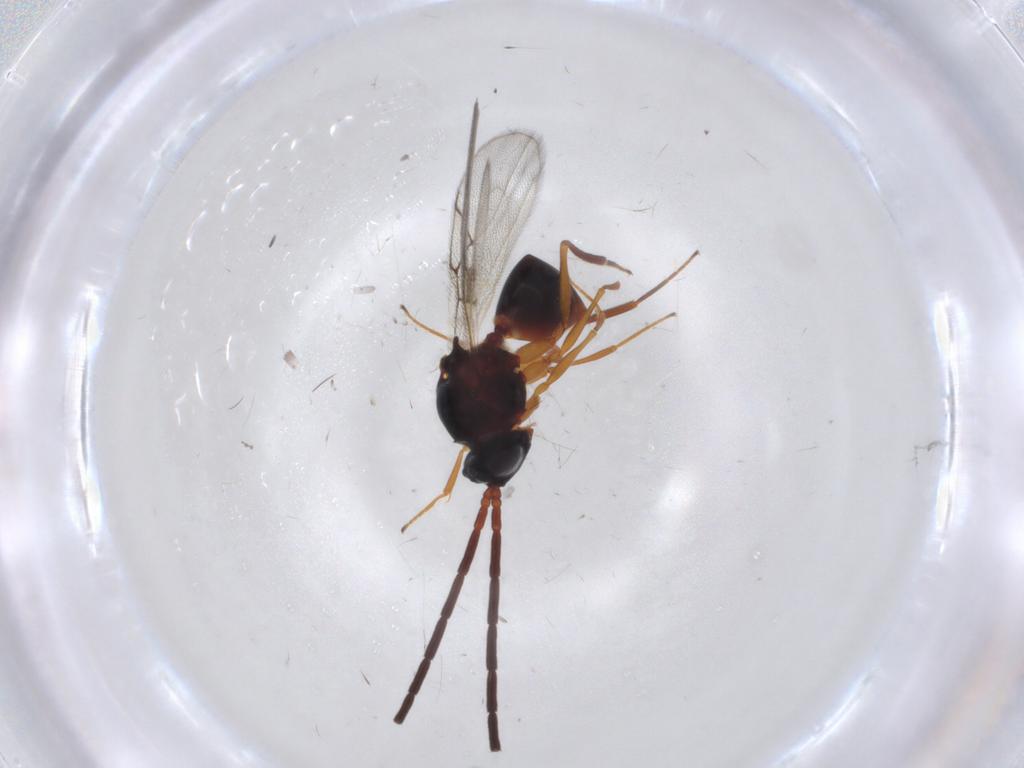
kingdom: Animalia
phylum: Arthropoda
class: Insecta
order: Hymenoptera
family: Figitidae
